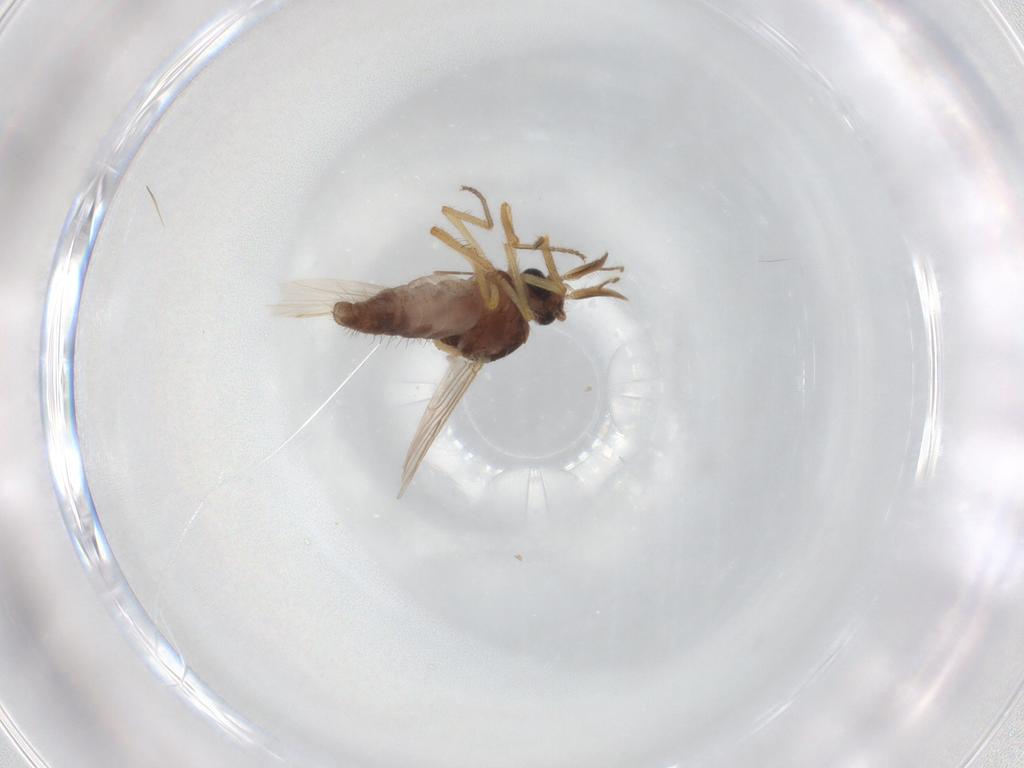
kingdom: Animalia
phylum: Arthropoda
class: Insecta
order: Diptera
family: Ceratopogonidae
